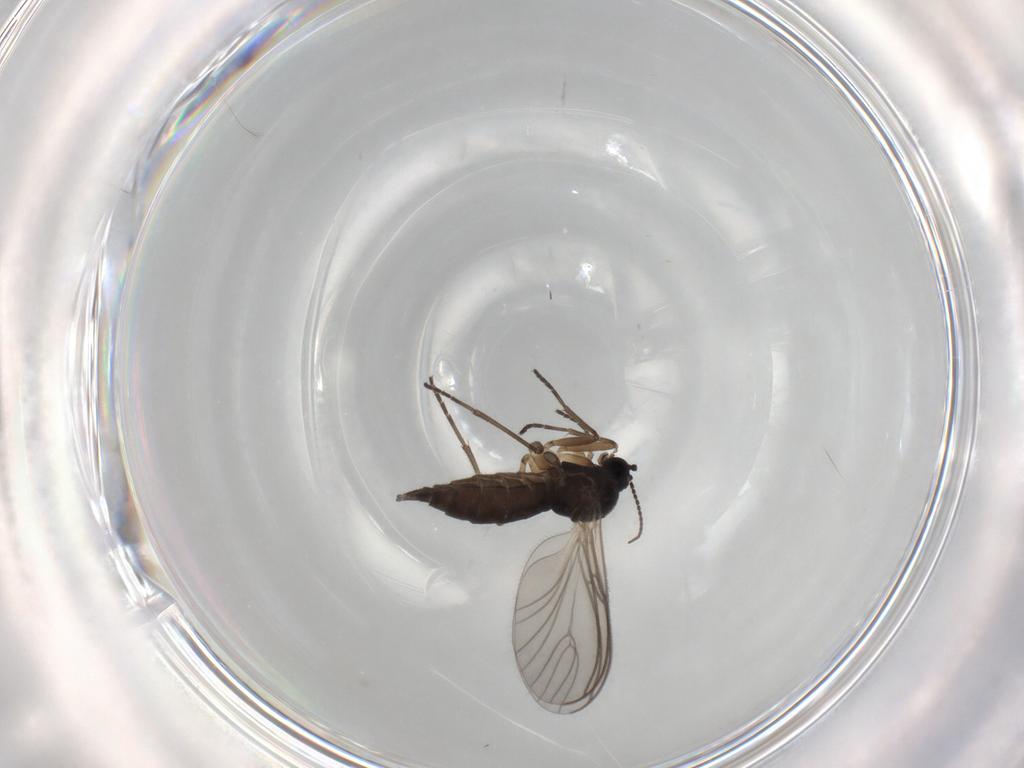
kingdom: Animalia
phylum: Arthropoda
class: Insecta
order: Diptera
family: Sciaridae
